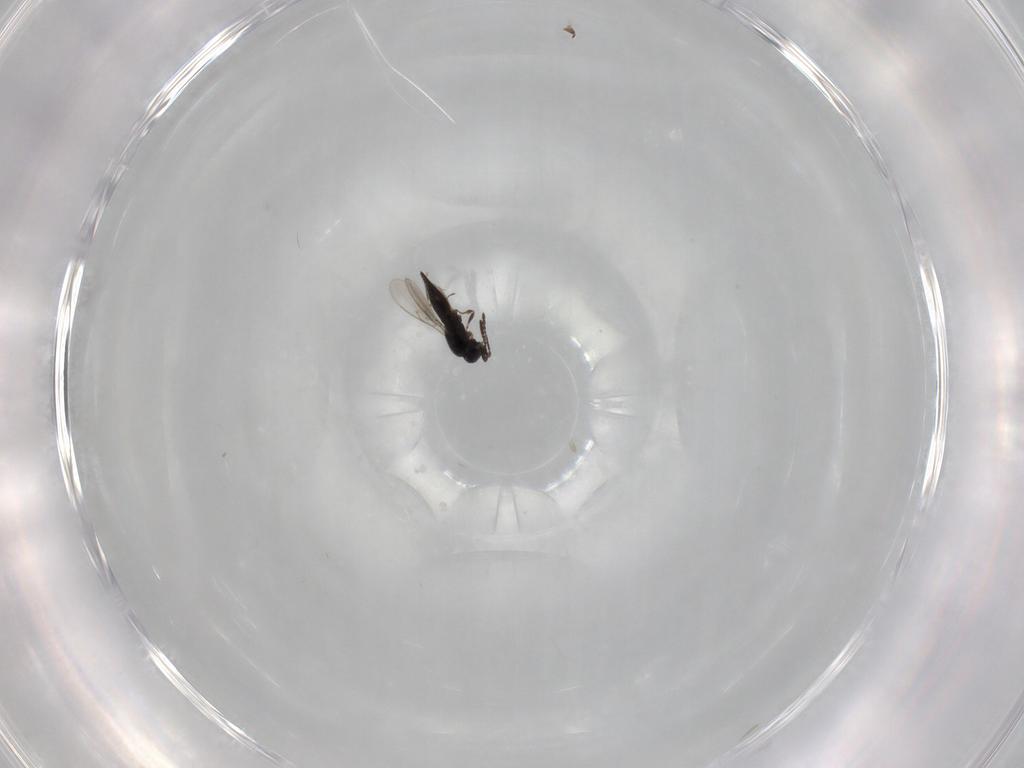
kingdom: Animalia
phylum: Arthropoda
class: Insecta
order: Hymenoptera
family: Scelionidae
